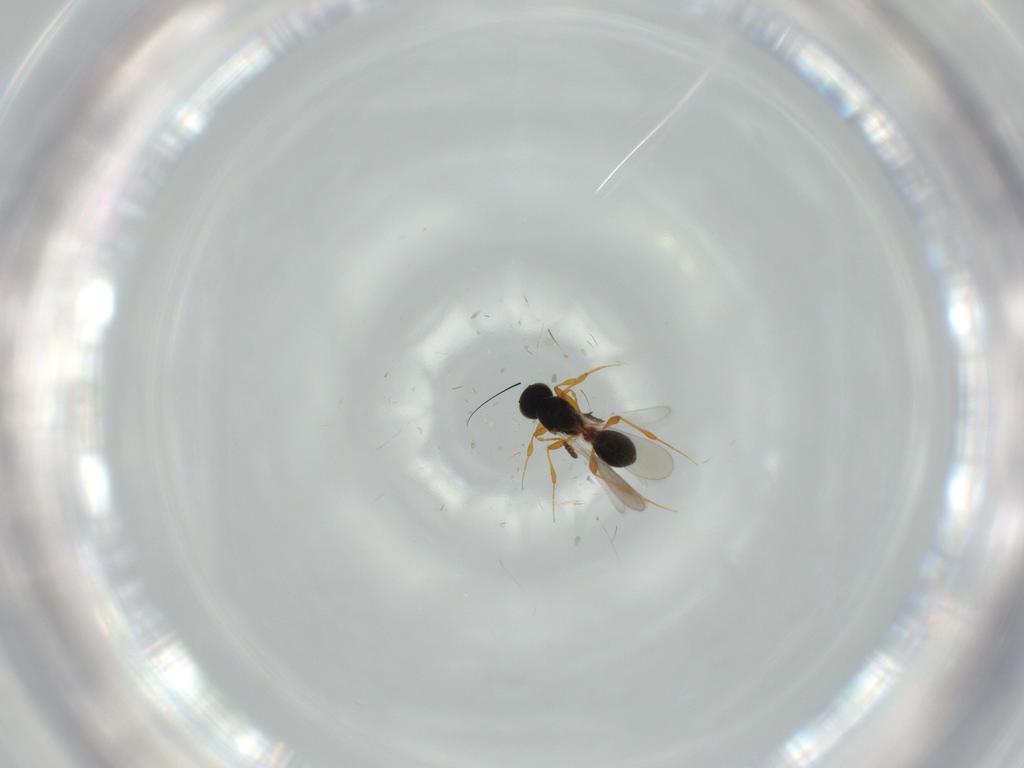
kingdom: Animalia
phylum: Arthropoda
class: Insecta
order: Hymenoptera
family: Platygastridae
